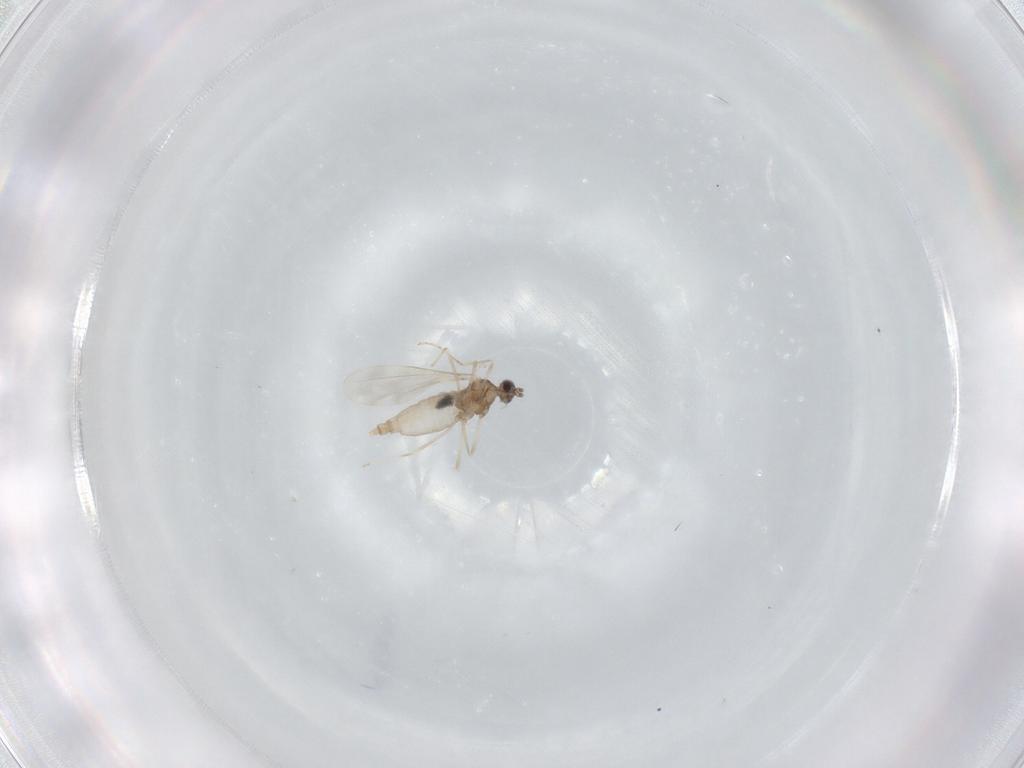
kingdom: Animalia
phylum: Arthropoda
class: Insecta
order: Diptera
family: Cecidomyiidae
